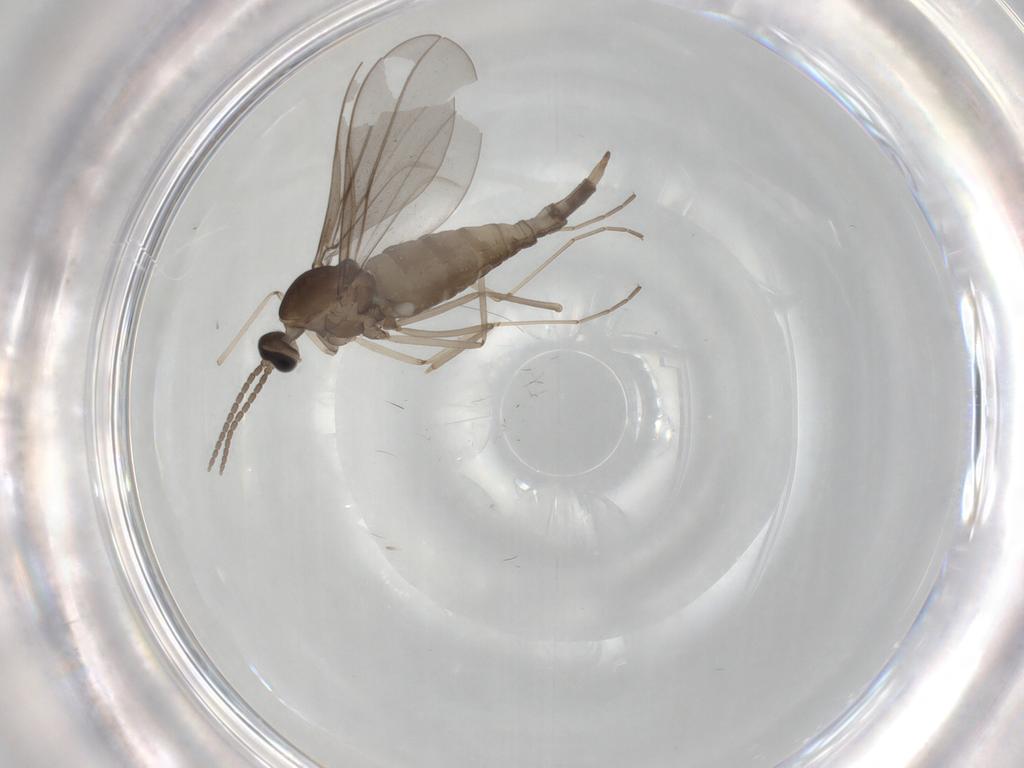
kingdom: Animalia
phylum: Arthropoda
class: Insecta
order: Diptera
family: Cecidomyiidae
